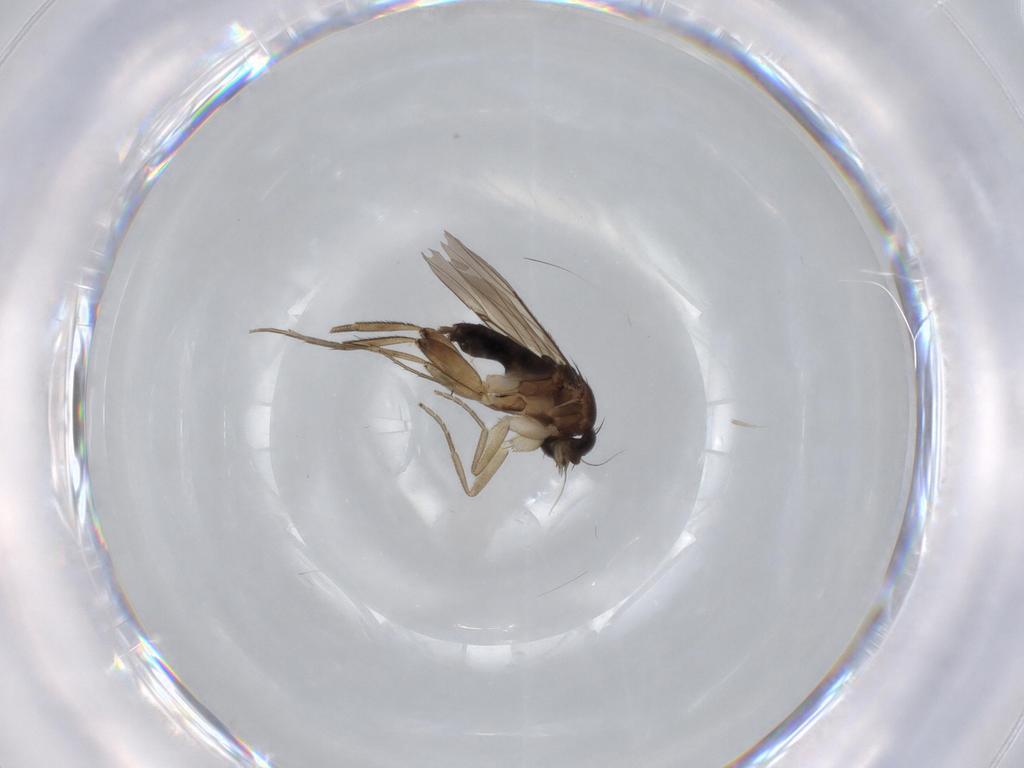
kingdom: Animalia
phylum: Arthropoda
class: Insecta
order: Diptera
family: Phoridae
